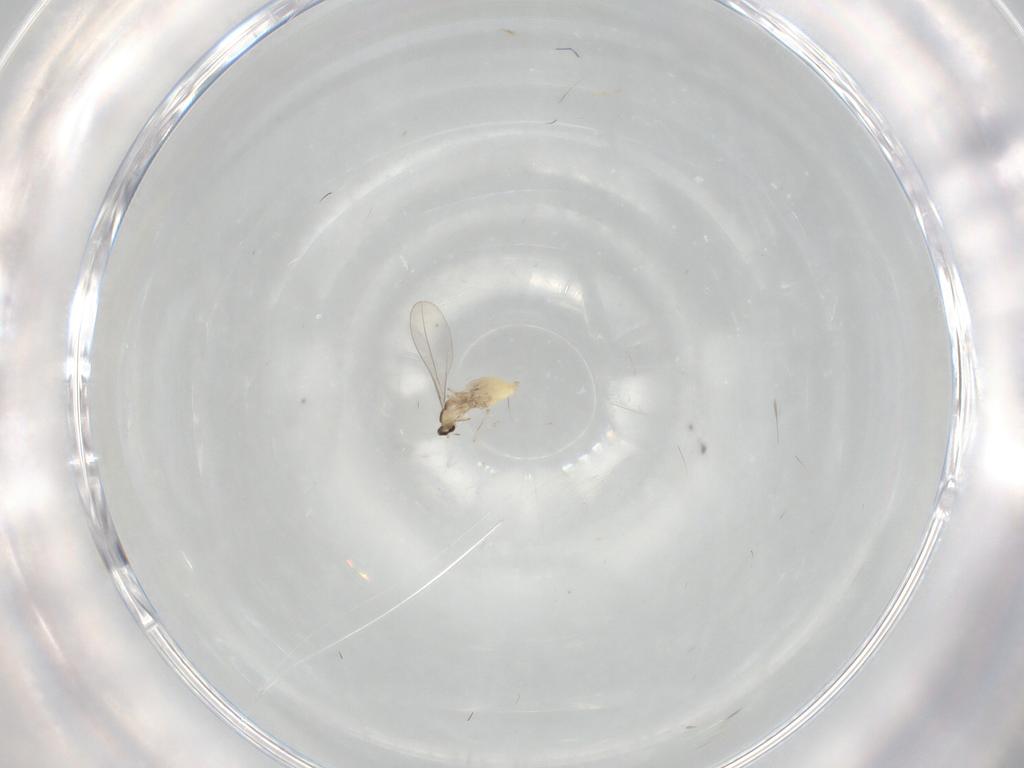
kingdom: Animalia
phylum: Arthropoda
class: Insecta
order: Diptera
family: Cecidomyiidae
